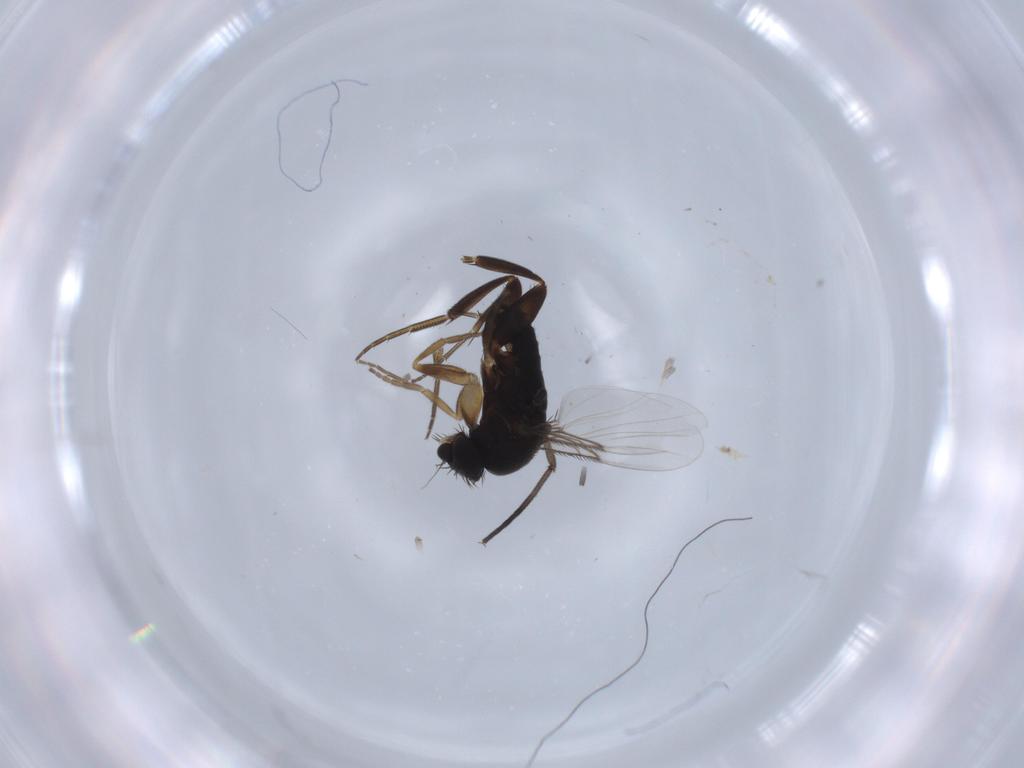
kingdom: Animalia
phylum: Arthropoda
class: Insecta
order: Diptera
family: Phoridae
